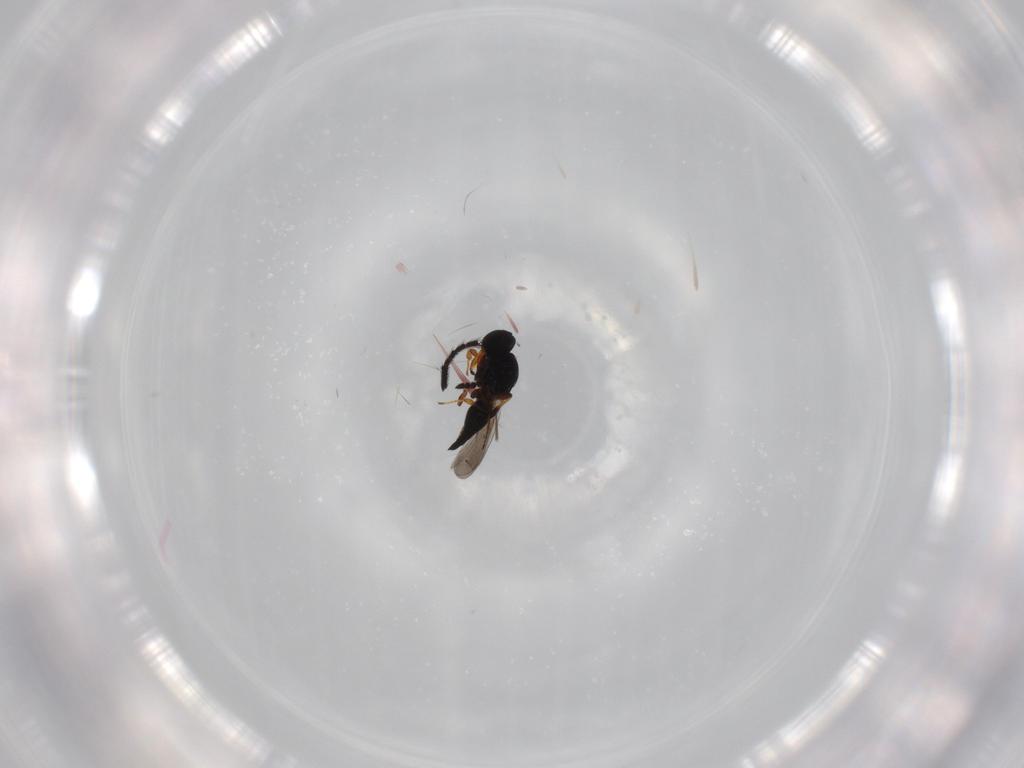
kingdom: Animalia
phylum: Arthropoda
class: Insecta
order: Hymenoptera
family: Platygastridae
